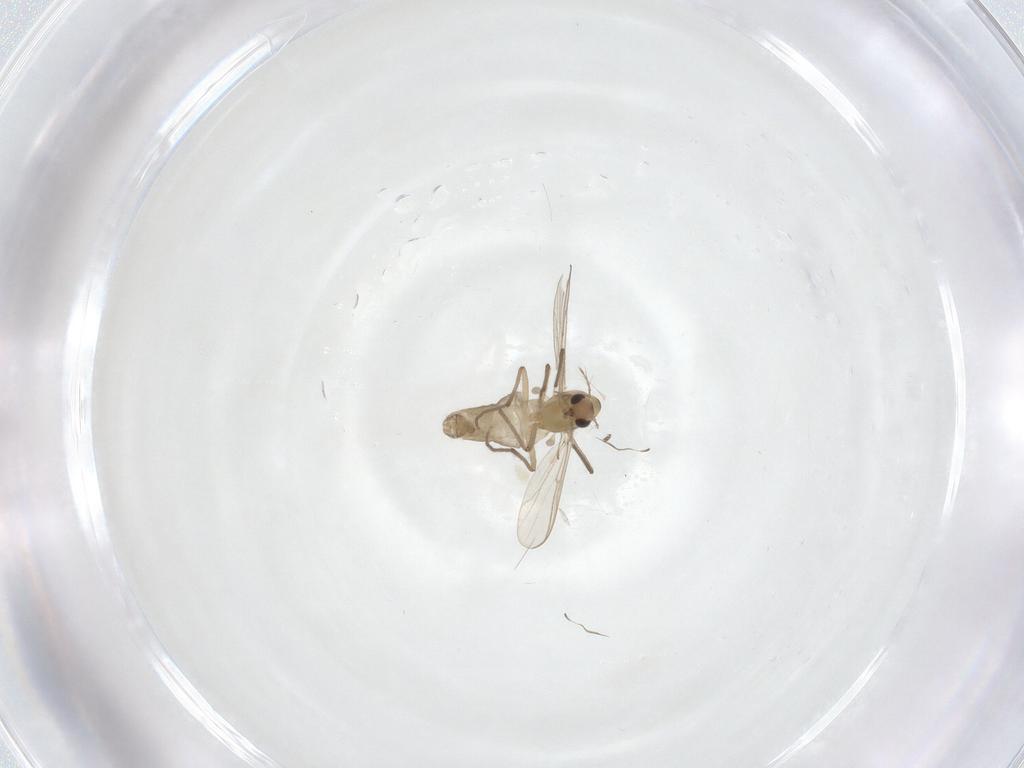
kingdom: Animalia
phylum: Arthropoda
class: Insecta
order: Diptera
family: Chironomidae
